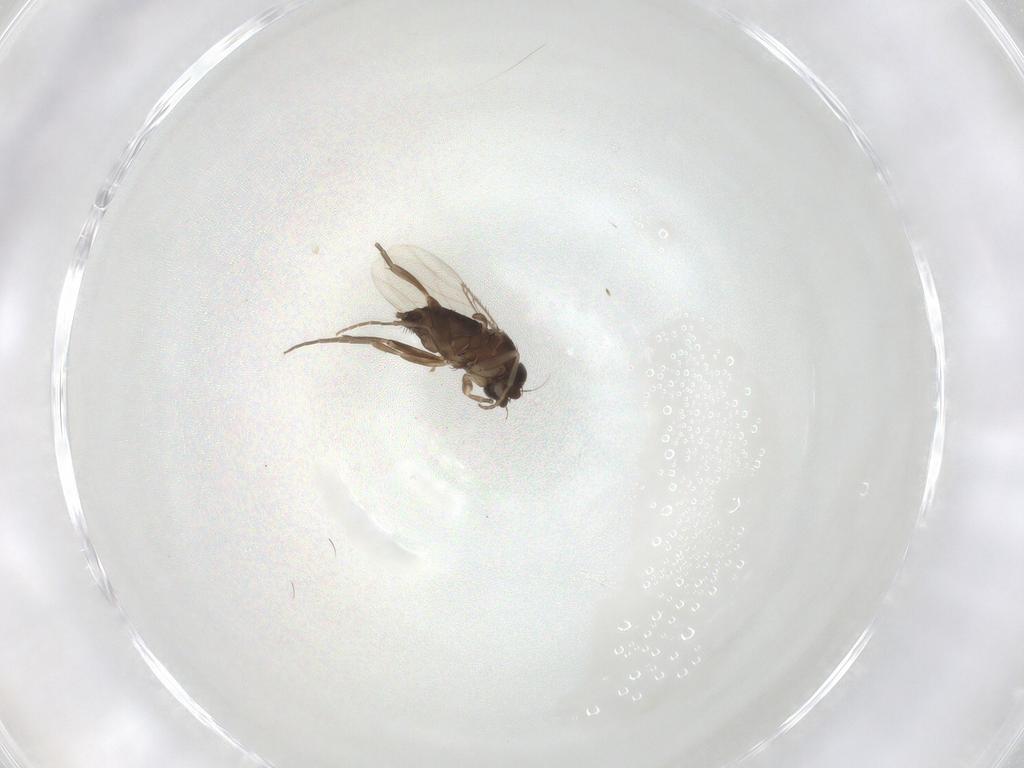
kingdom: Animalia
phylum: Arthropoda
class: Insecta
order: Diptera
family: Phoridae
